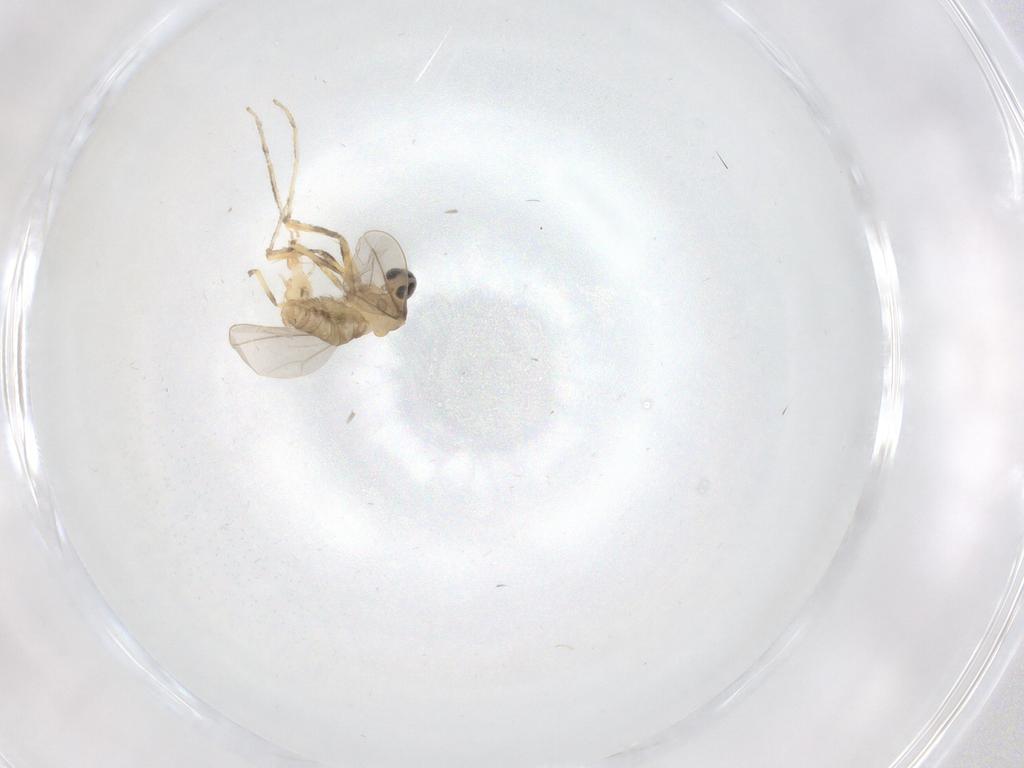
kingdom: Animalia
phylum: Arthropoda
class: Insecta
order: Diptera
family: Cecidomyiidae
